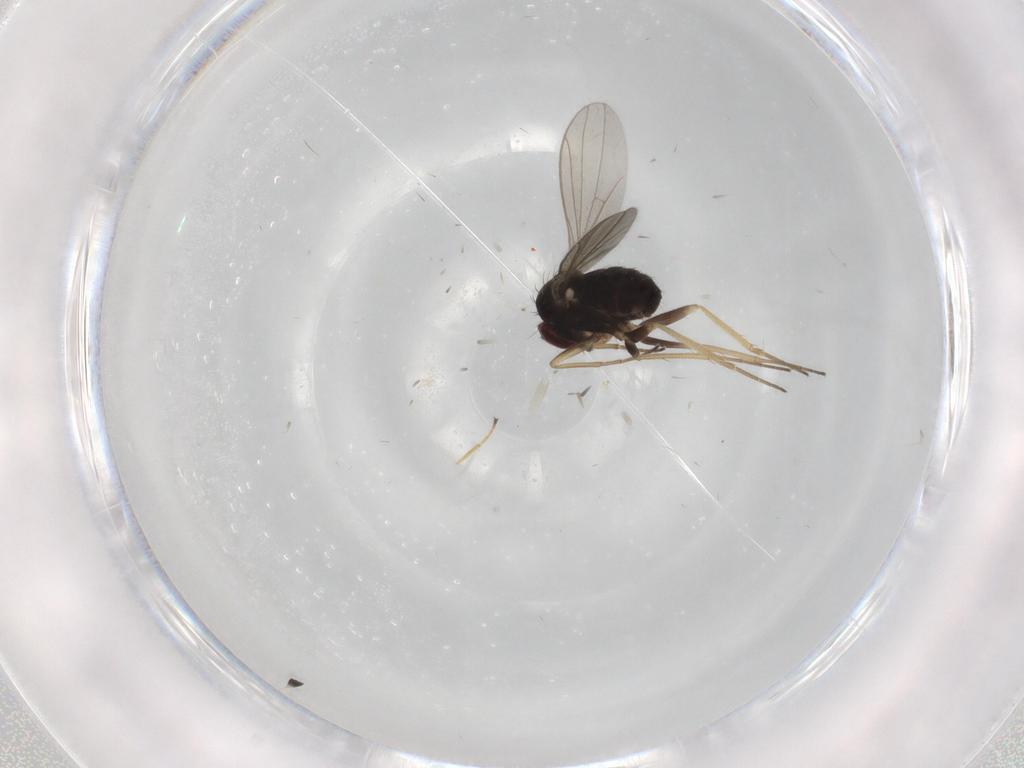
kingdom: Animalia
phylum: Arthropoda
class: Insecta
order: Diptera
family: Dolichopodidae
